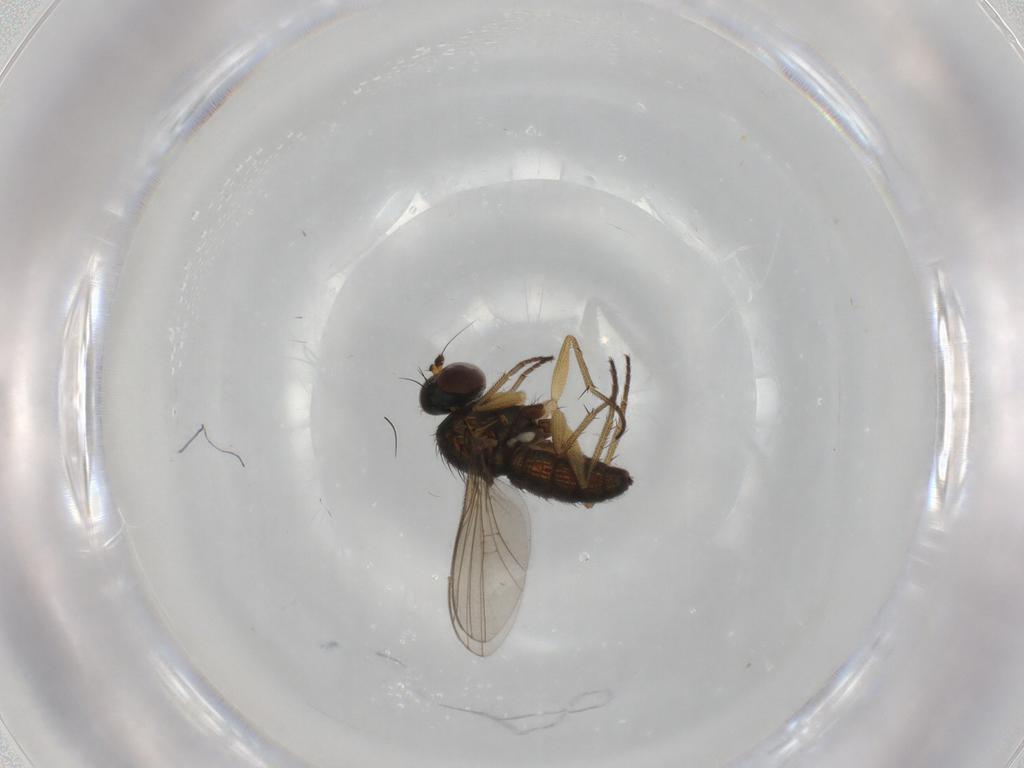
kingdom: Animalia
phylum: Arthropoda
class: Insecta
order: Diptera
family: Dolichopodidae
